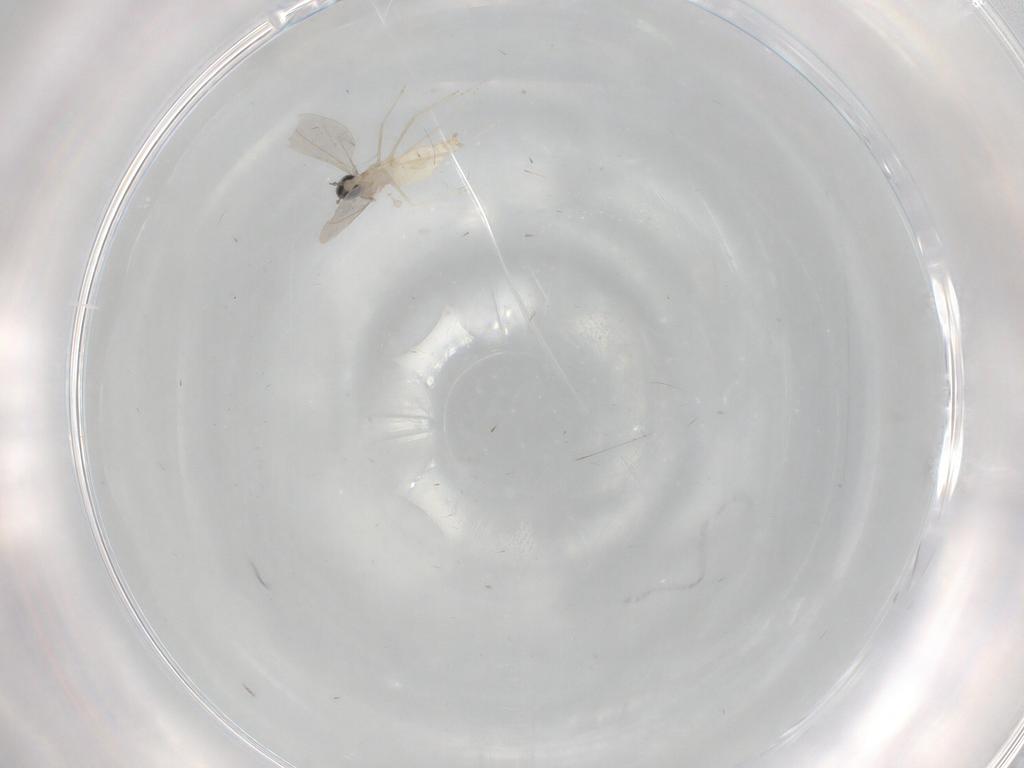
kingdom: Animalia
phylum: Arthropoda
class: Insecta
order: Diptera
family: Cecidomyiidae
